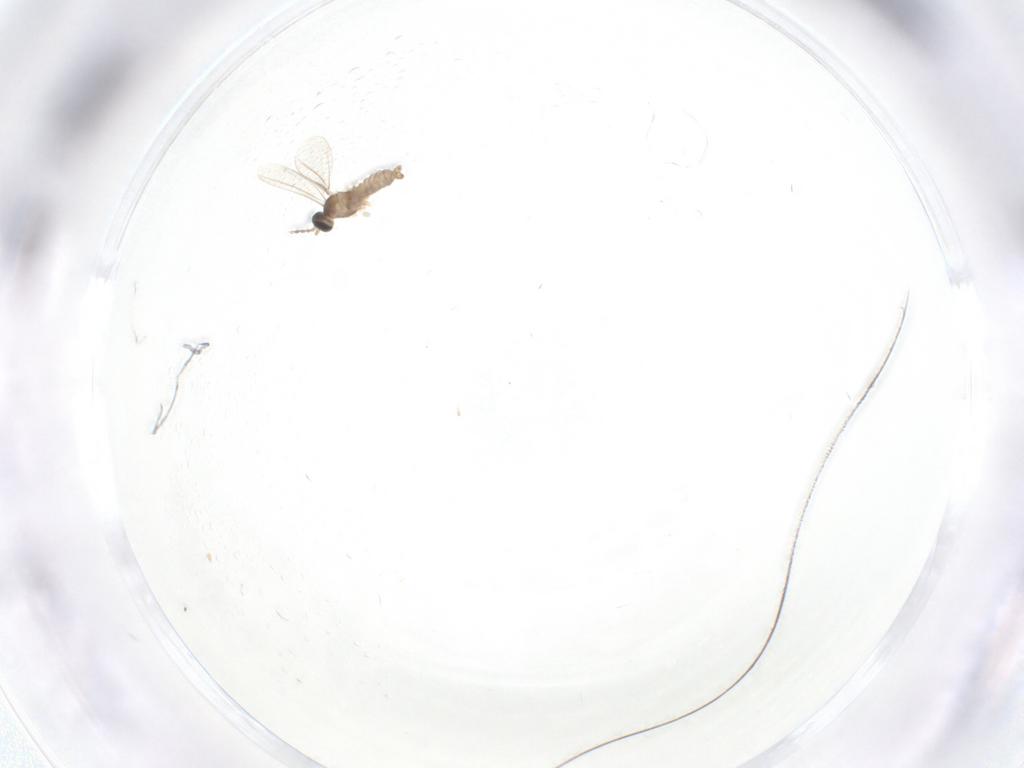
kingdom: Animalia
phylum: Arthropoda
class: Insecta
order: Diptera
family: Cecidomyiidae
